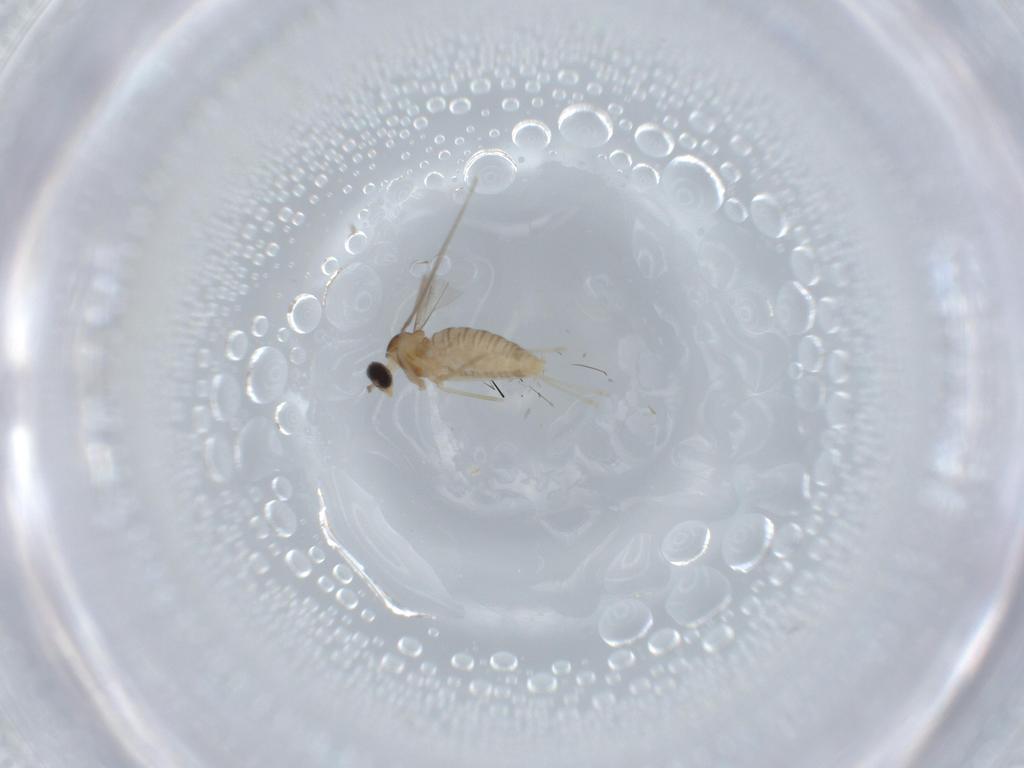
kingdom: Animalia
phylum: Arthropoda
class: Insecta
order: Diptera
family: Cecidomyiidae
